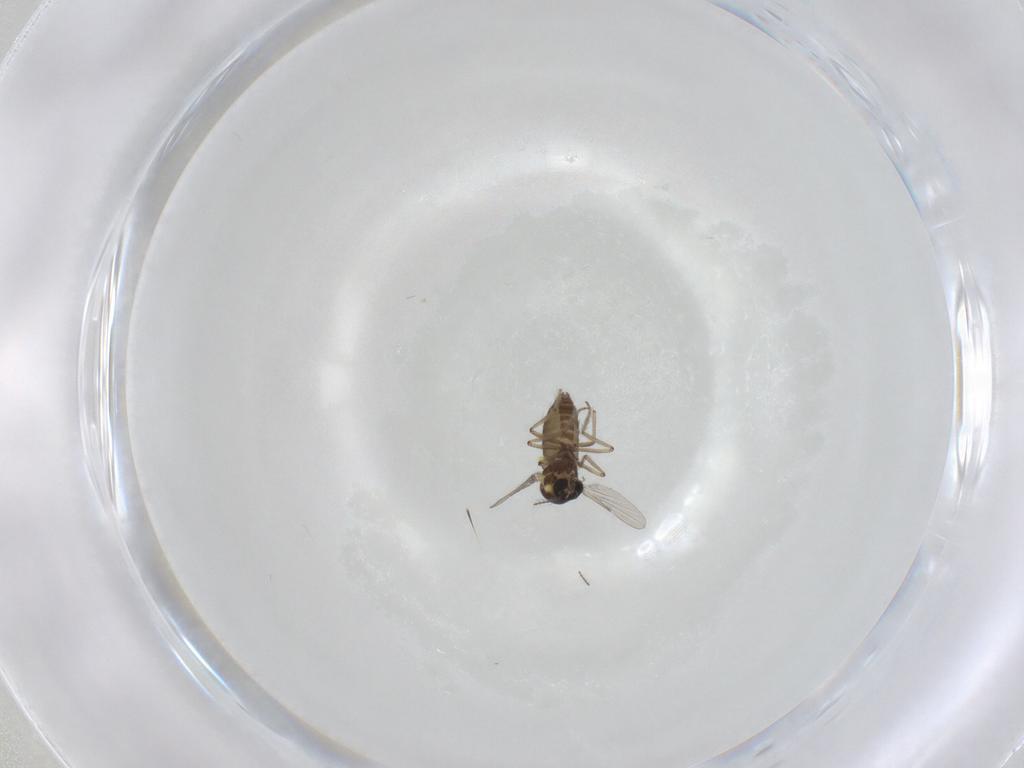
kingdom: Animalia
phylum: Arthropoda
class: Insecta
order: Diptera
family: Ceratopogonidae
